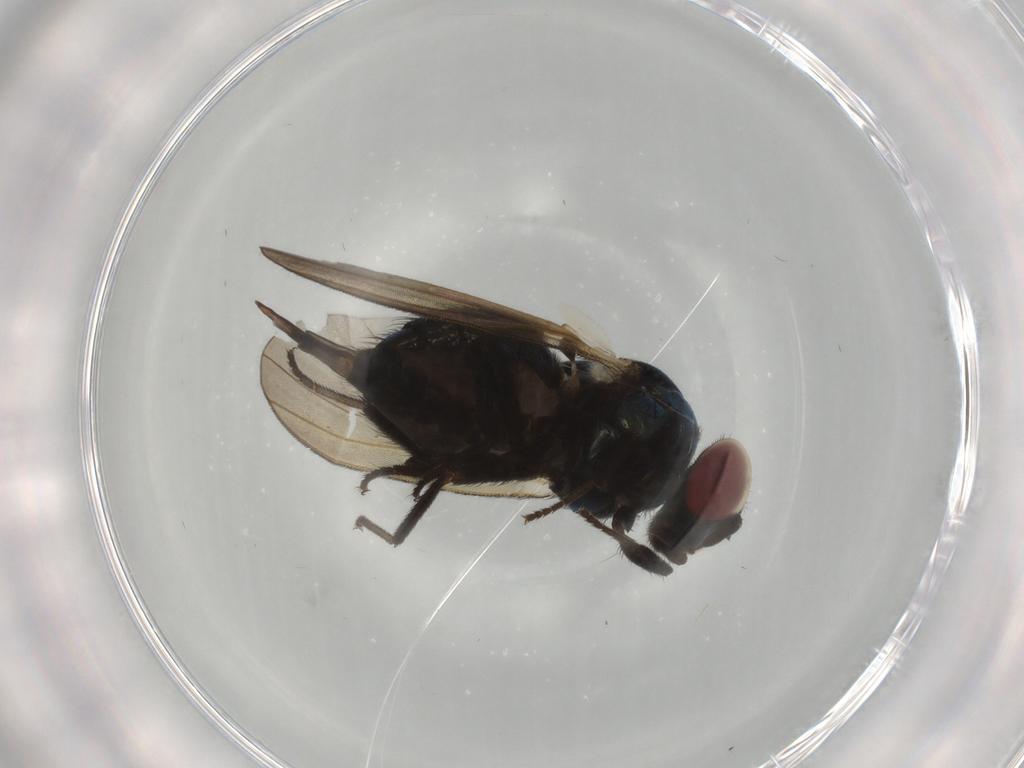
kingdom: Animalia
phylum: Arthropoda
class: Insecta
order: Diptera
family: Lonchaeidae
